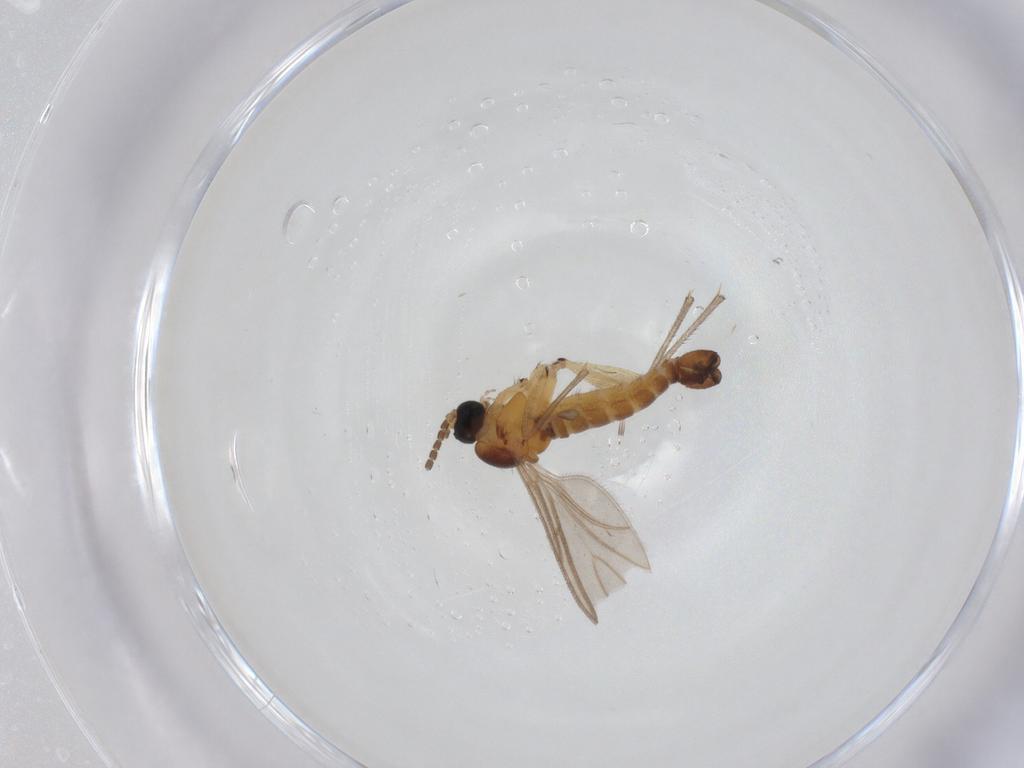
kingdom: Animalia
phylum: Arthropoda
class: Insecta
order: Diptera
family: Sciaridae
